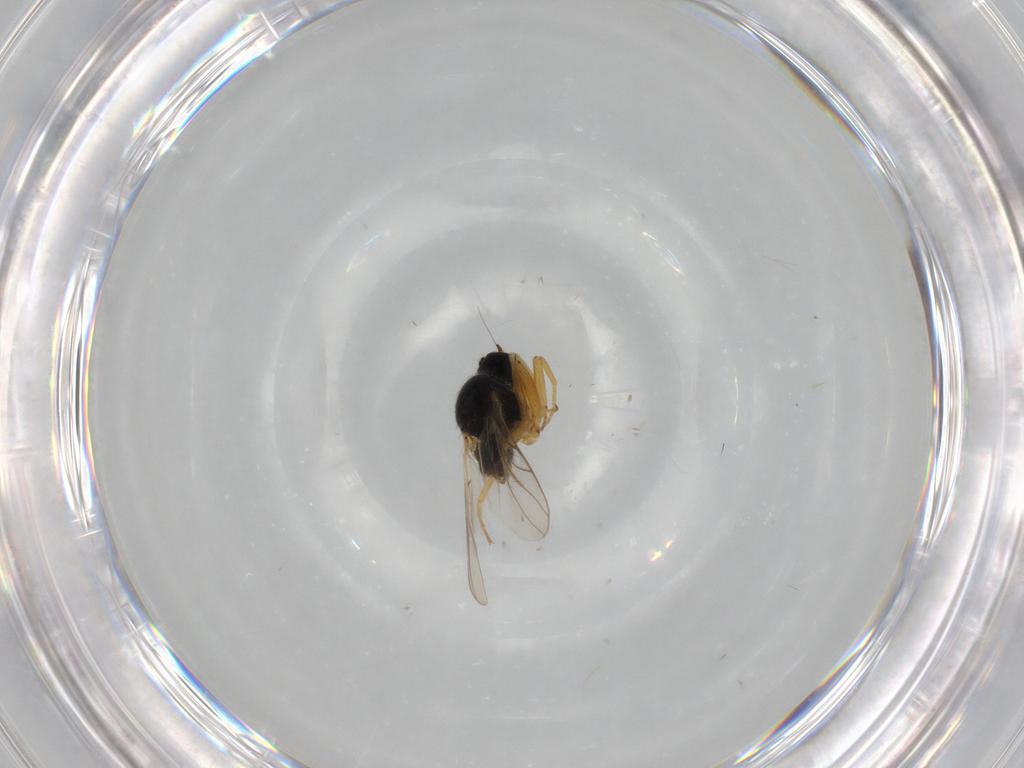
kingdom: Animalia
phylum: Arthropoda
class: Insecta
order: Diptera
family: Hybotidae
